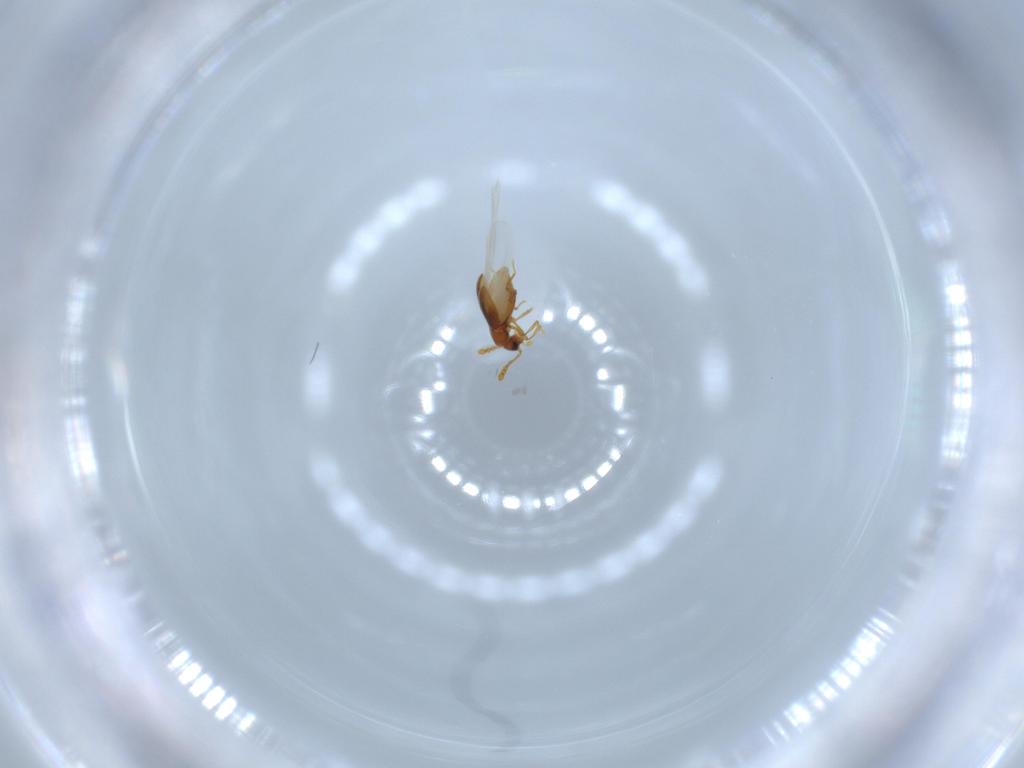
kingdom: Animalia
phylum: Arthropoda
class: Insecta
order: Coleoptera
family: Staphylinidae
